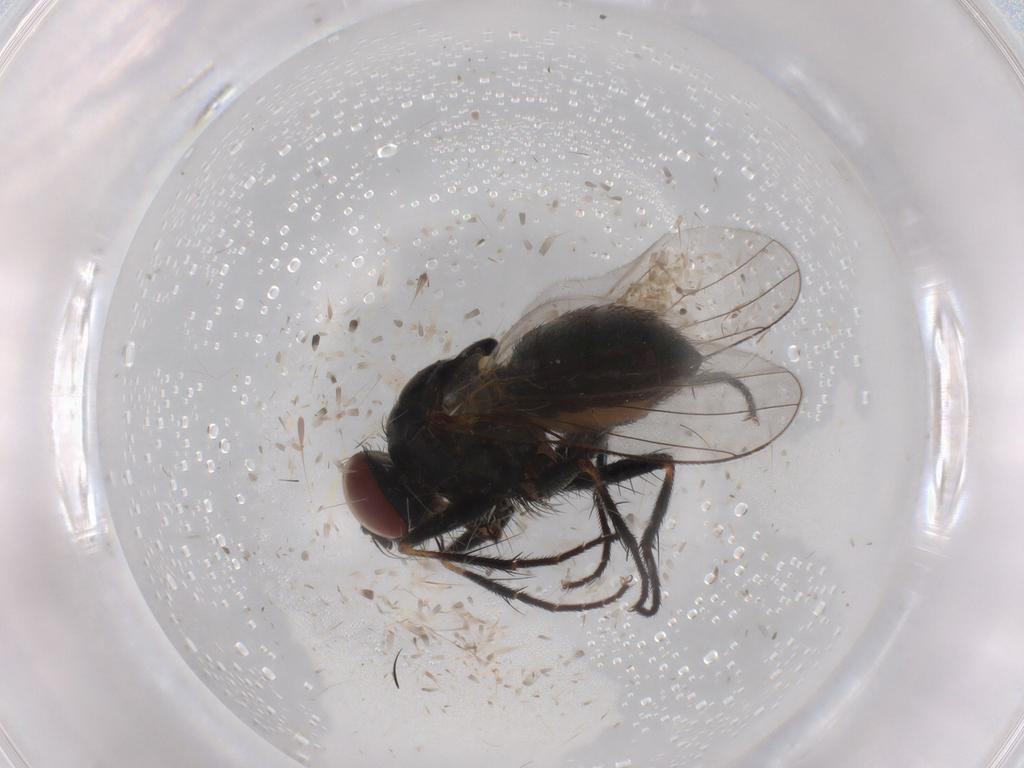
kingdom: Animalia
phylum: Arthropoda
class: Insecta
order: Diptera
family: Muscidae
